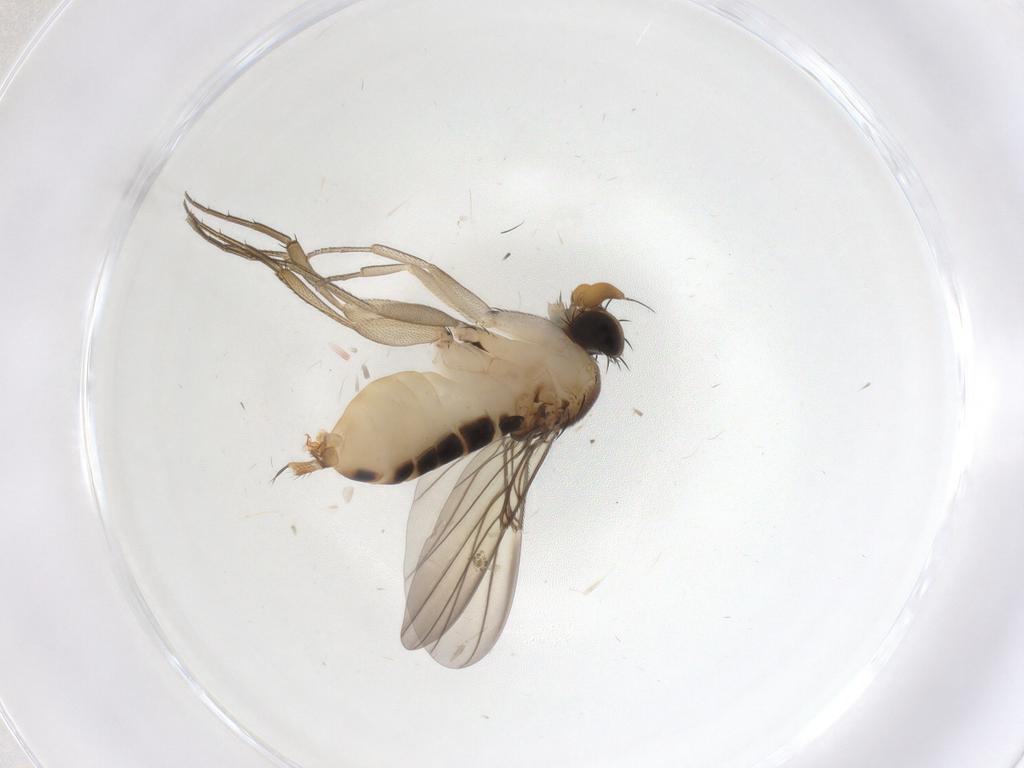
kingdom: Animalia
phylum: Arthropoda
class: Insecta
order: Diptera
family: Phoridae
